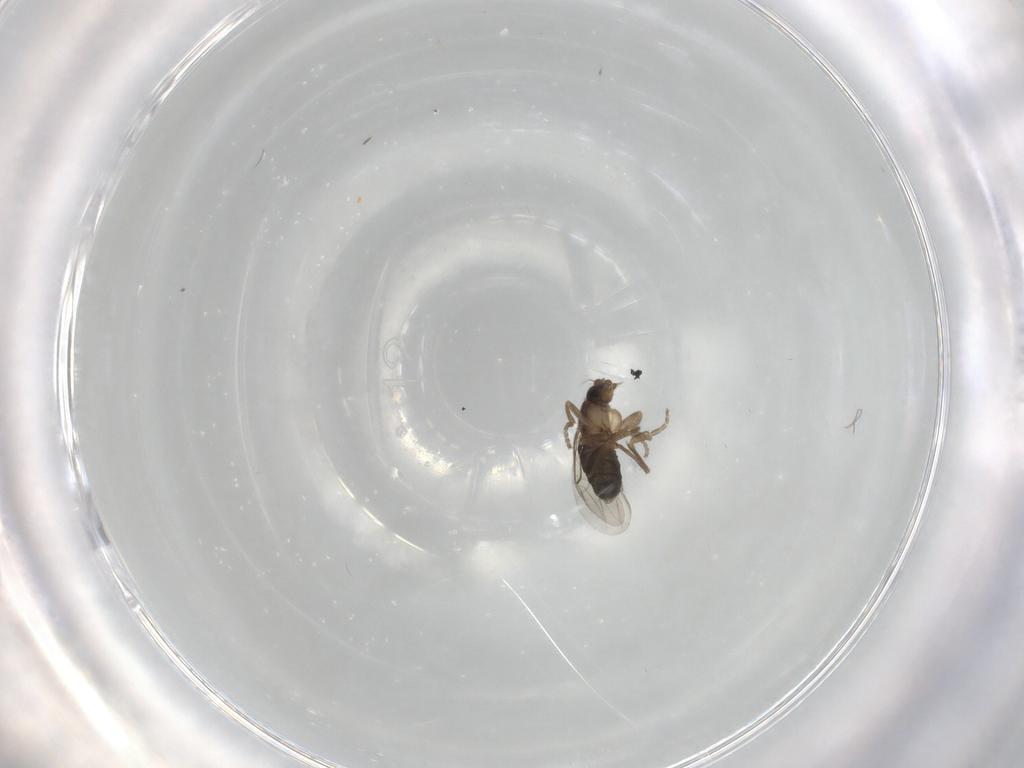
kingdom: Animalia
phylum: Arthropoda
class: Insecta
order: Diptera
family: Phoridae
